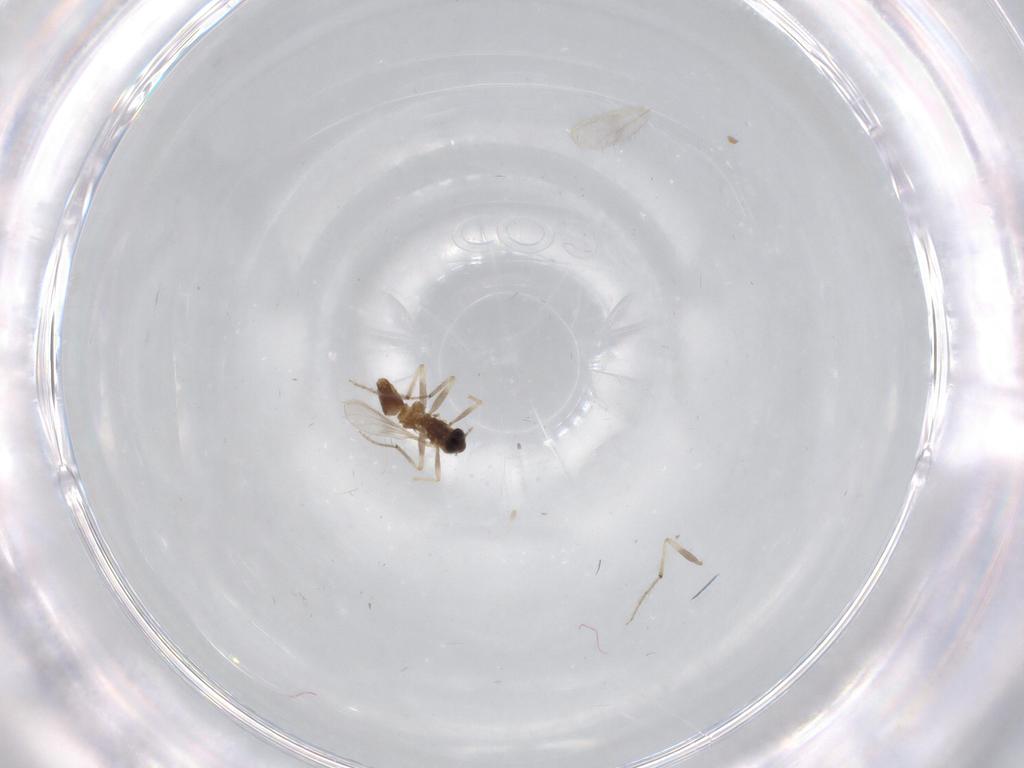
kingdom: Animalia
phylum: Arthropoda
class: Insecta
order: Diptera
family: Chironomidae
